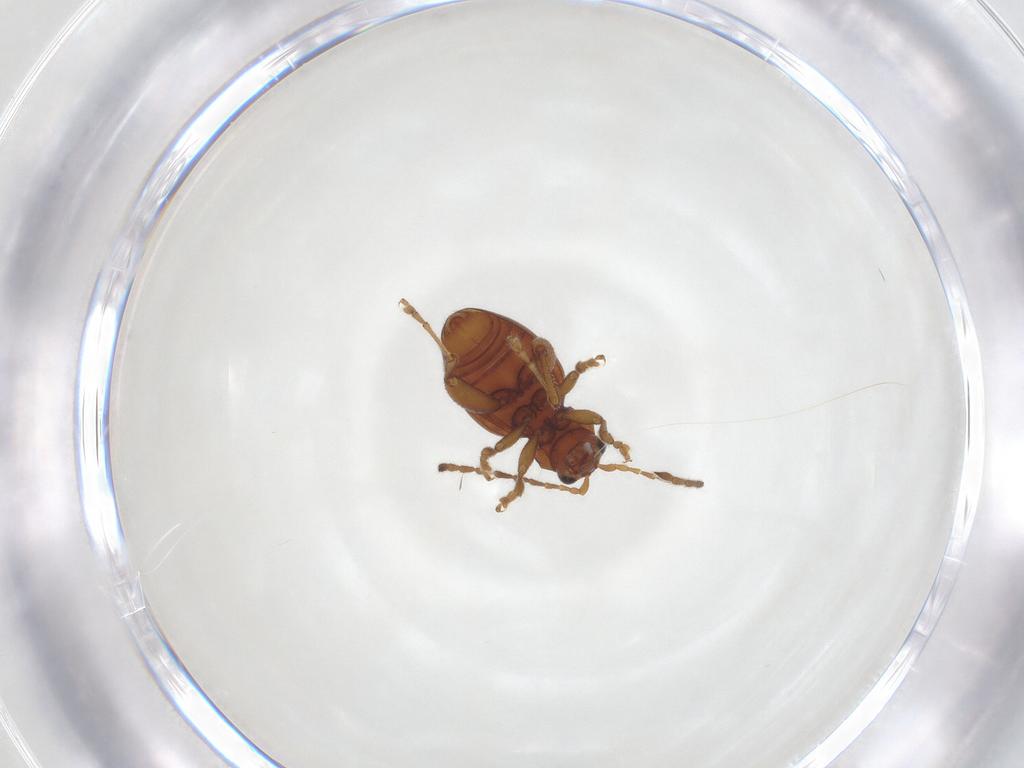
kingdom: Animalia
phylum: Arthropoda
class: Insecta
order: Coleoptera
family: Chrysomelidae
